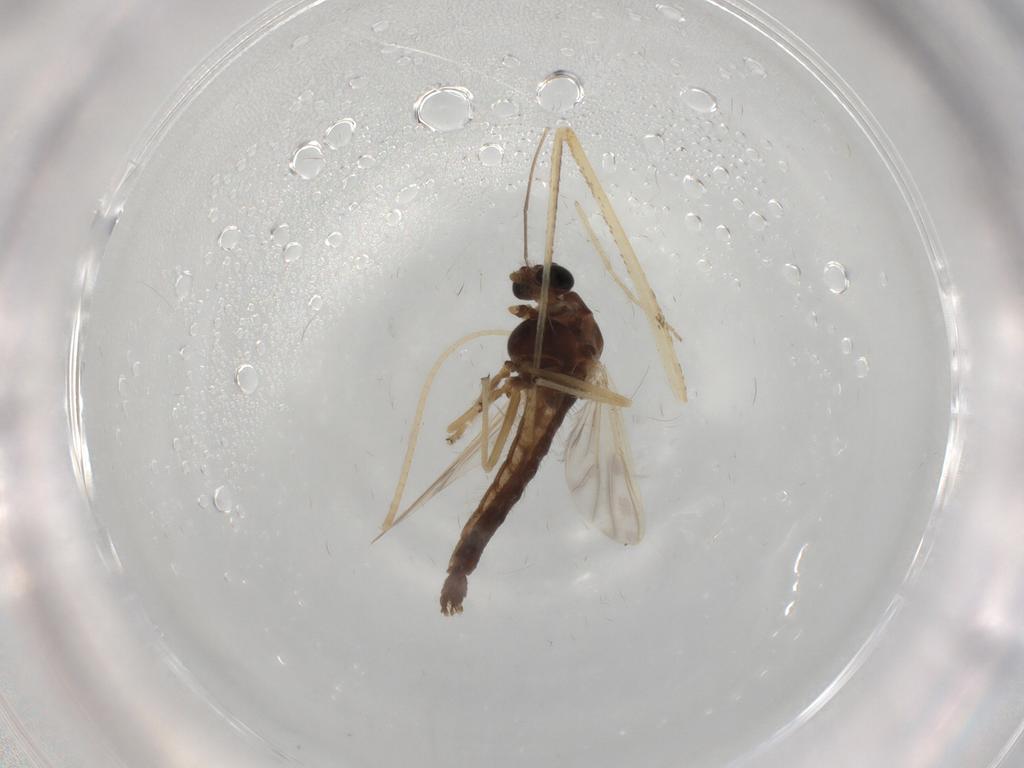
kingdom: Animalia
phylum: Arthropoda
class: Insecta
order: Diptera
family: Chironomidae
